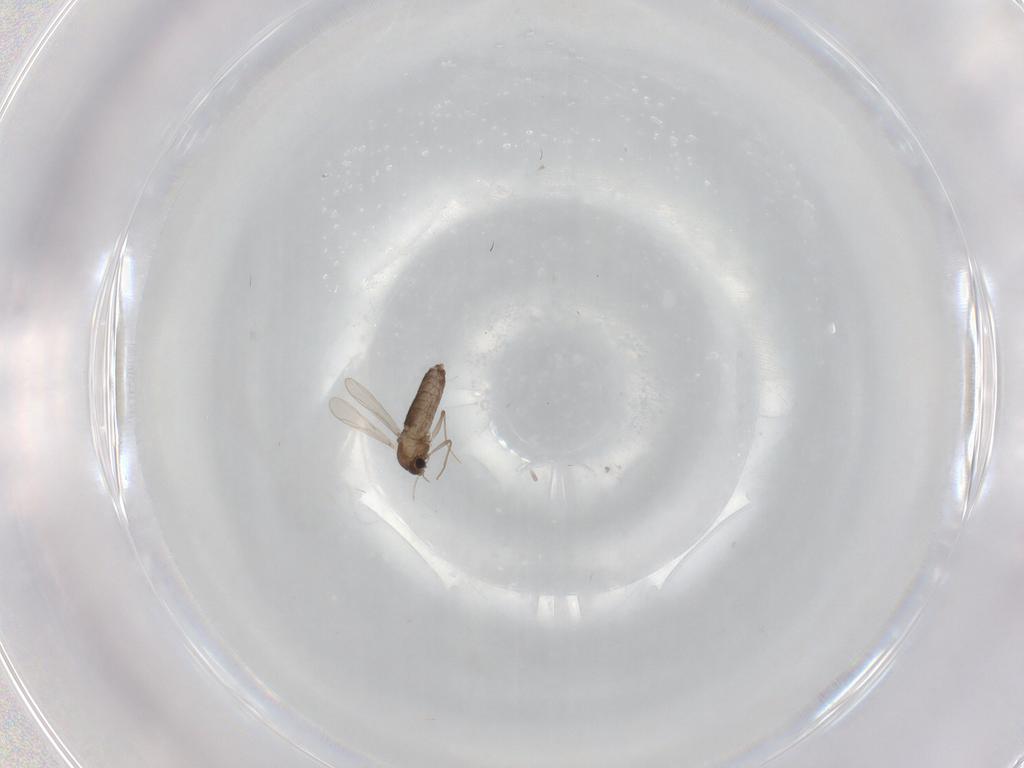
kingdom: Animalia
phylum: Arthropoda
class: Insecta
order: Diptera
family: Chironomidae
